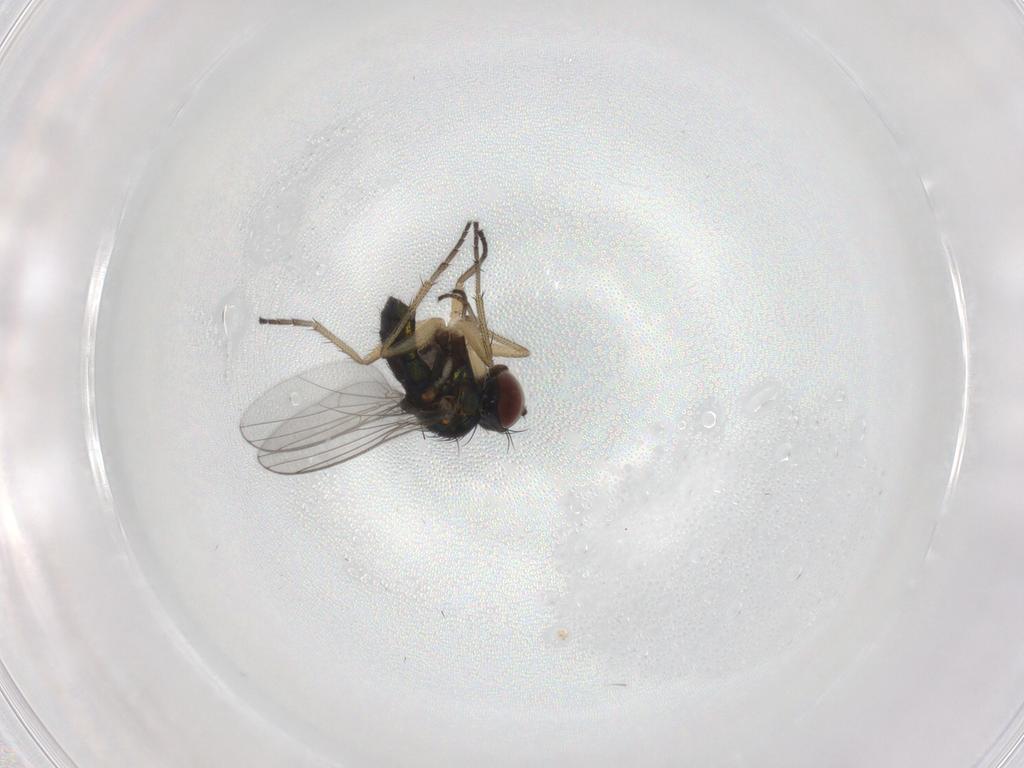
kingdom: Animalia
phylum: Arthropoda
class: Insecta
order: Diptera
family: Dolichopodidae
